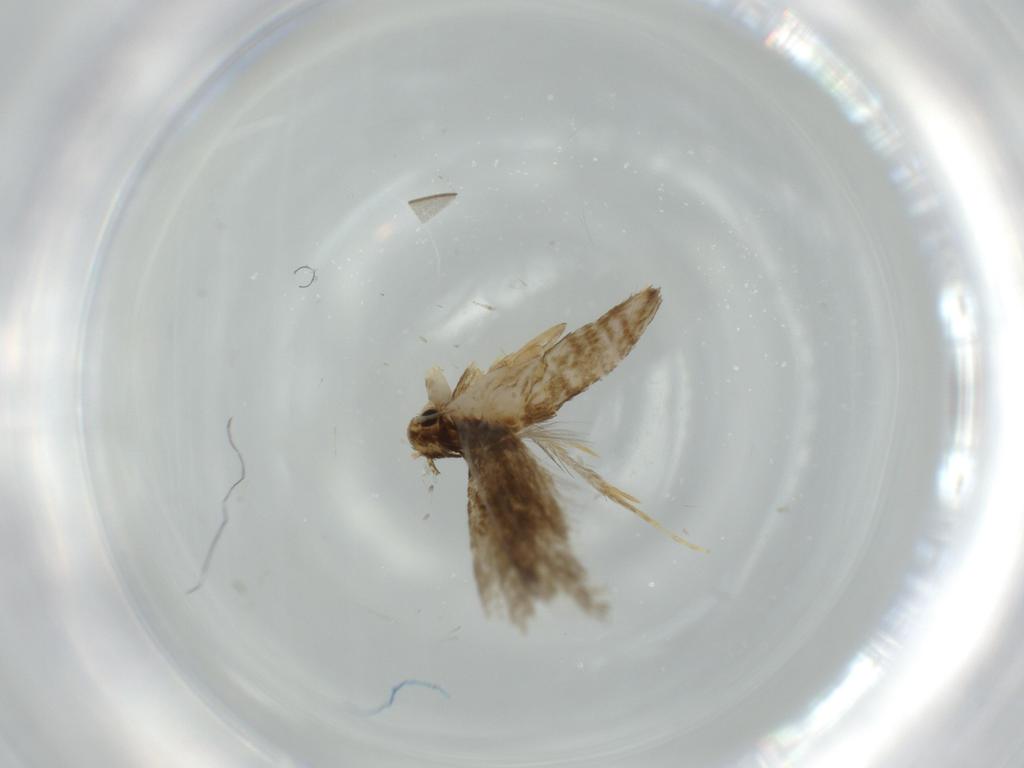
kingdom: Animalia
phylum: Arthropoda
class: Insecta
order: Lepidoptera
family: Tineidae
